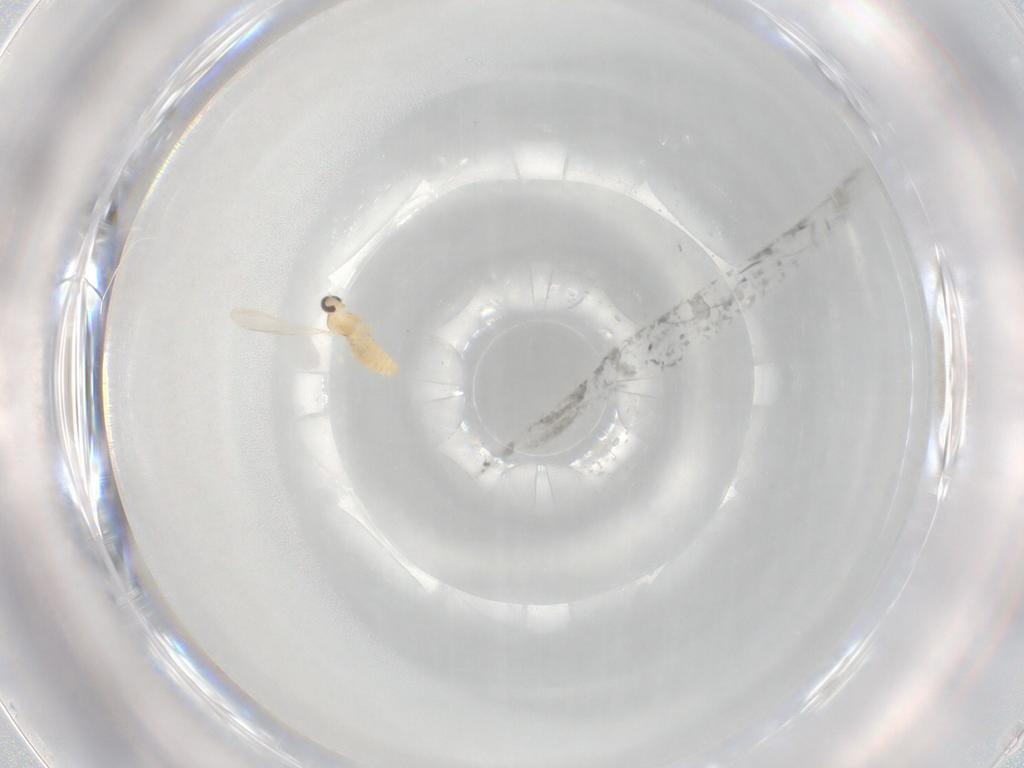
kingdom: Animalia
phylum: Arthropoda
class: Insecta
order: Diptera
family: Cecidomyiidae
